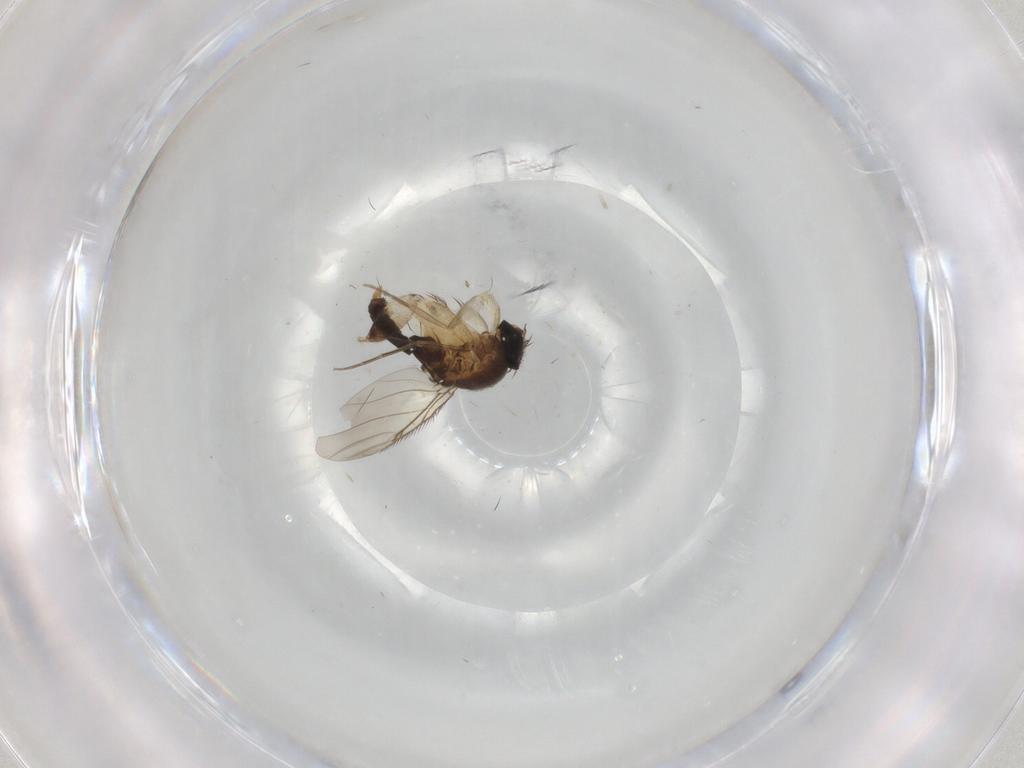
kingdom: Animalia
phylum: Arthropoda
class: Insecta
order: Diptera
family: Phoridae
